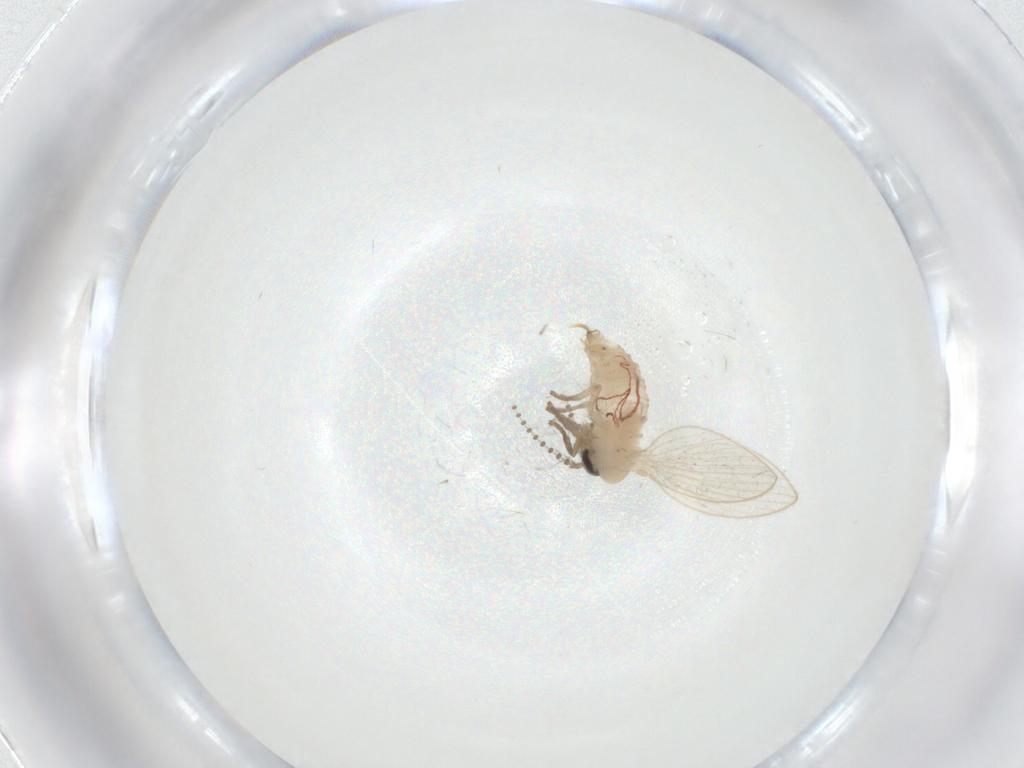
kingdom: Animalia
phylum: Arthropoda
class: Insecta
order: Diptera
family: Psychodidae
